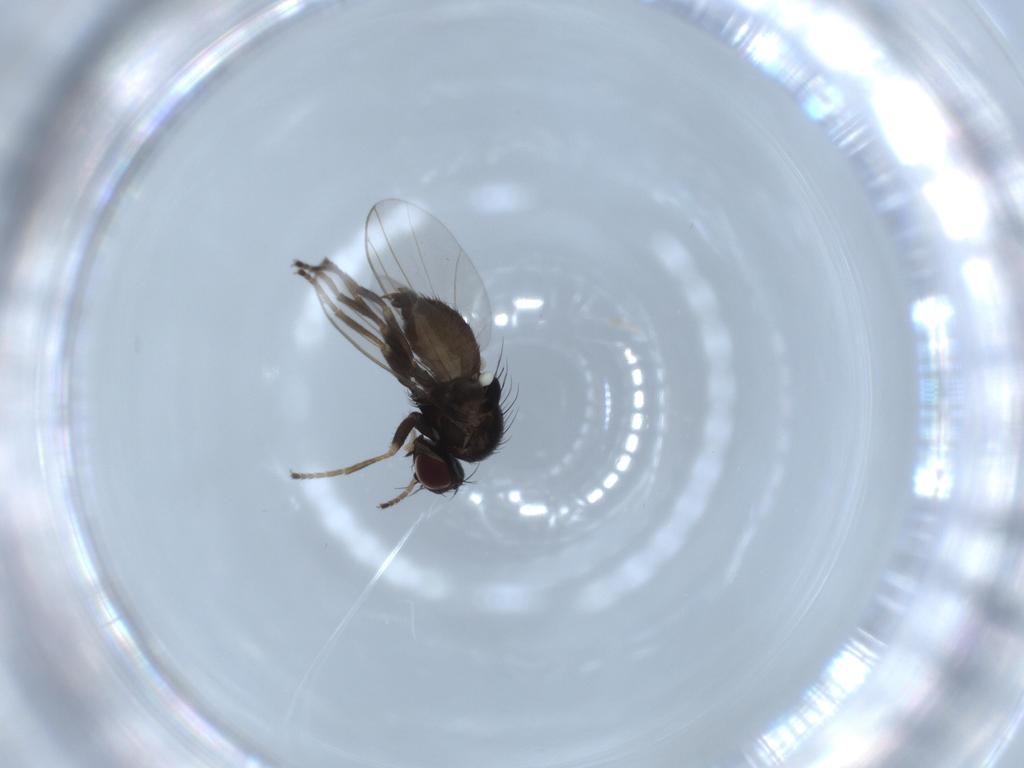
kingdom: Animalia
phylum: Arthropoda
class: Insecta
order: Diptera
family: Agromyzidae
